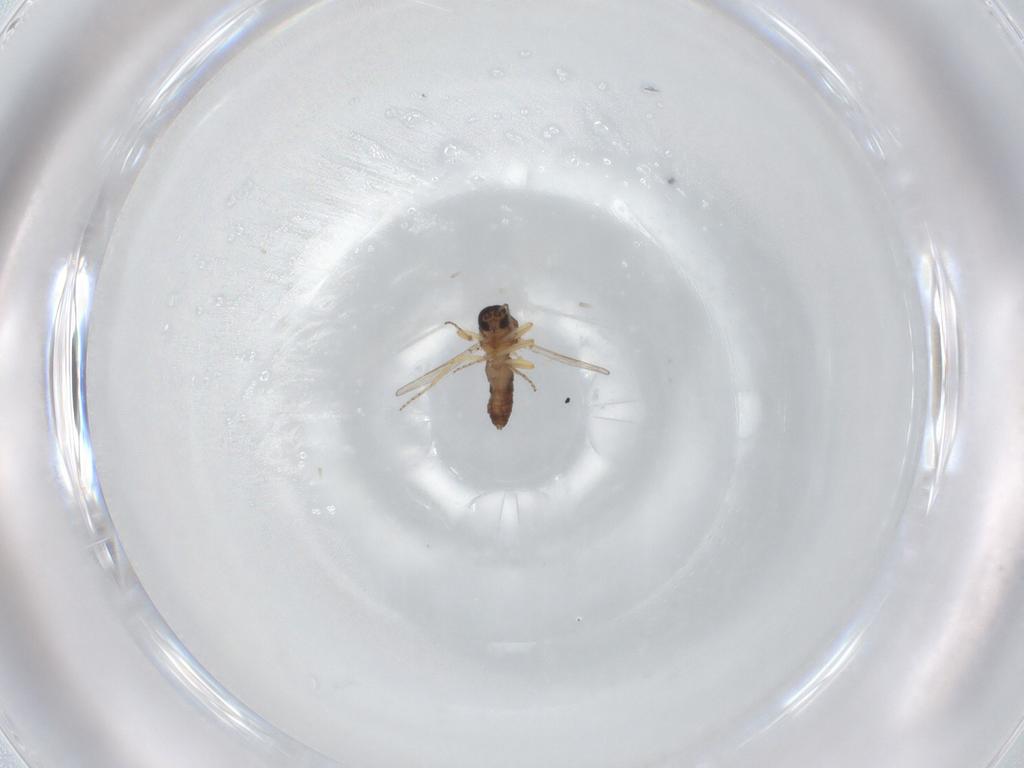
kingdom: Animalia
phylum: Arthropoda
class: Insecta
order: Diptera
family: Ceratopogonidae
